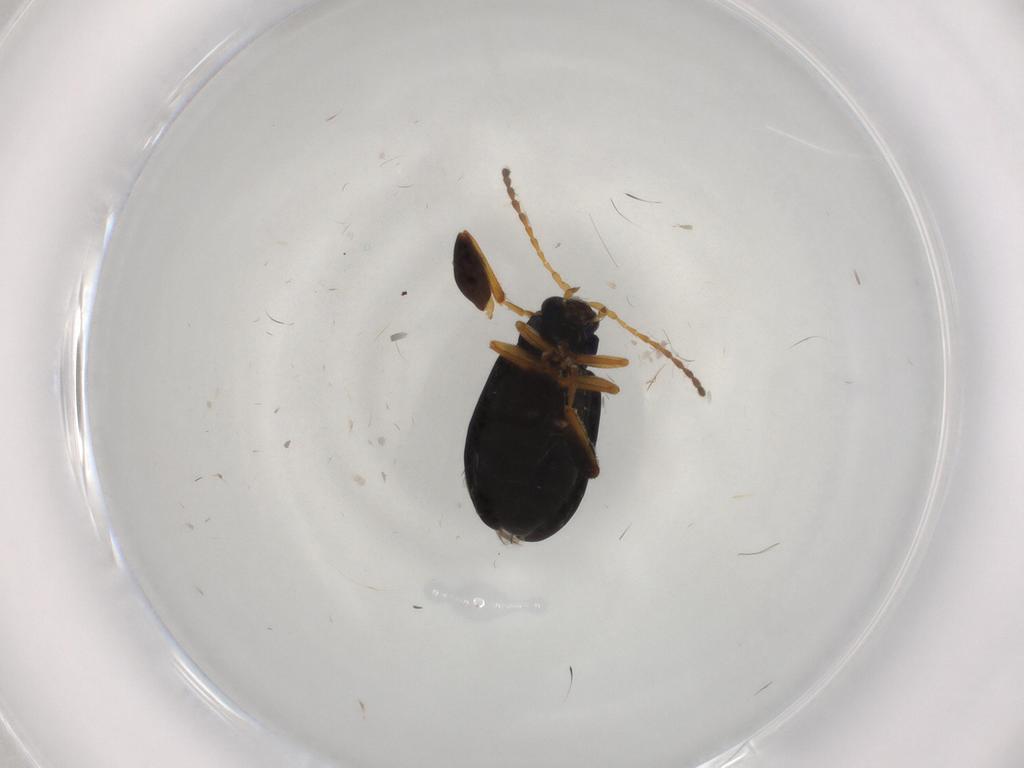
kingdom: Animalia
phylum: Arthropoda
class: Insecta
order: Coleoptera
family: Chrysomelidae
